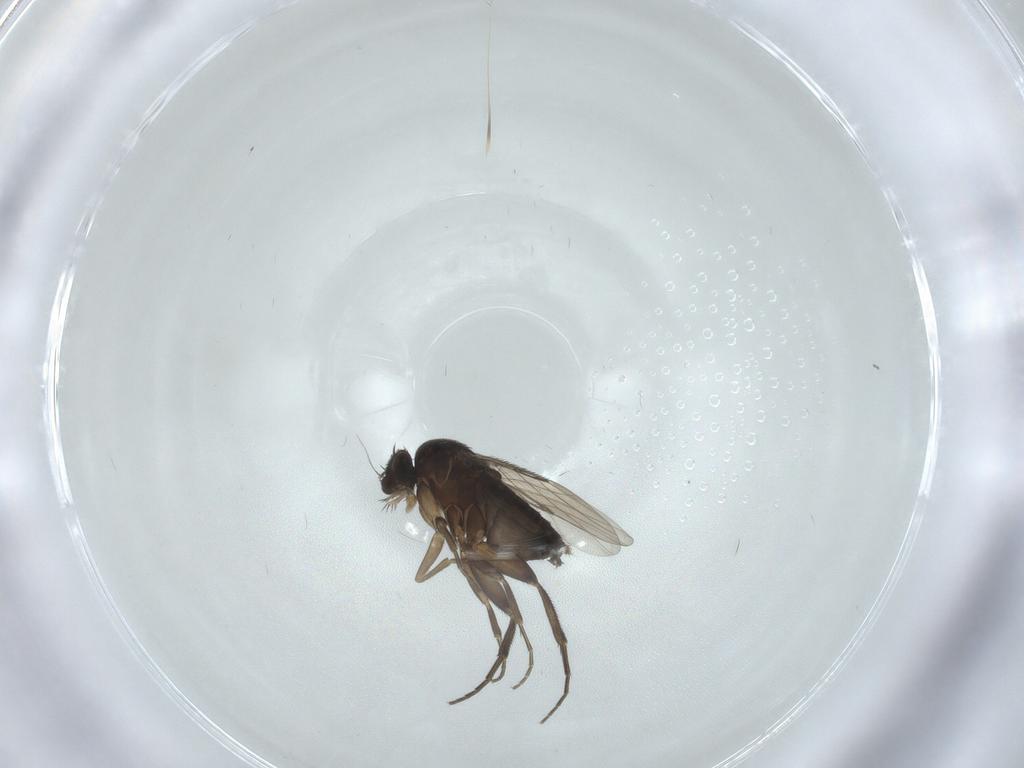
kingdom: Animalia
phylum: Arthropoda
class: Insecta
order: Diptera
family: Phoridae
